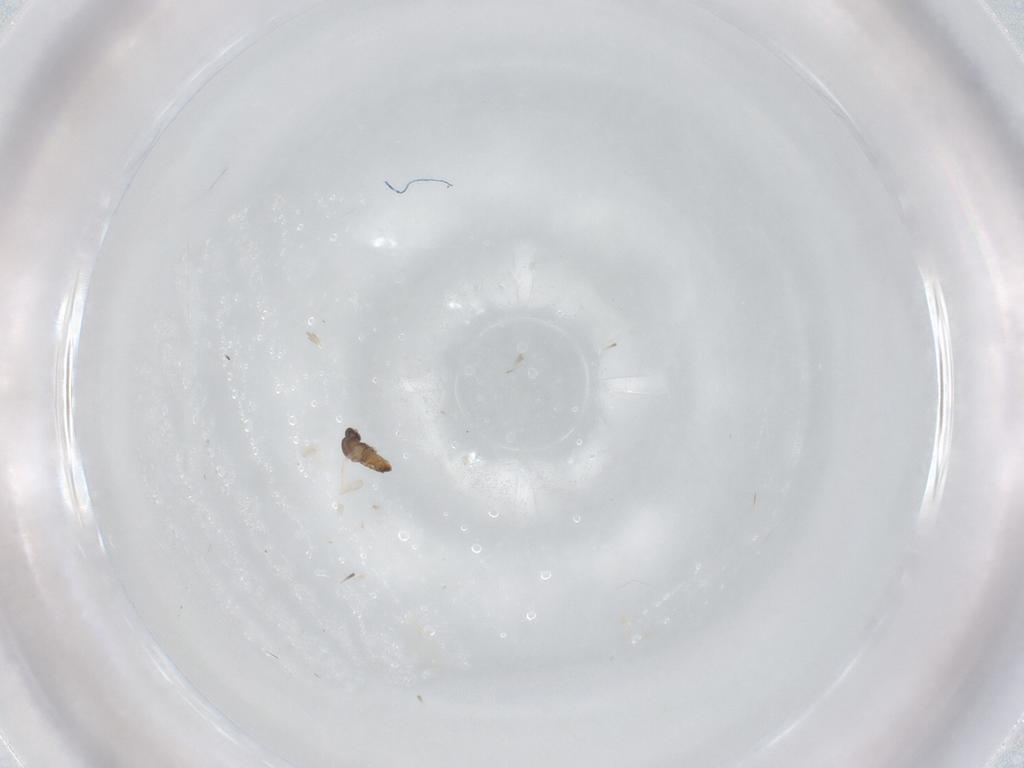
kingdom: Animalia
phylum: Arthropoda
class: Insecta
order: Diptera
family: Cecidomyiidae
